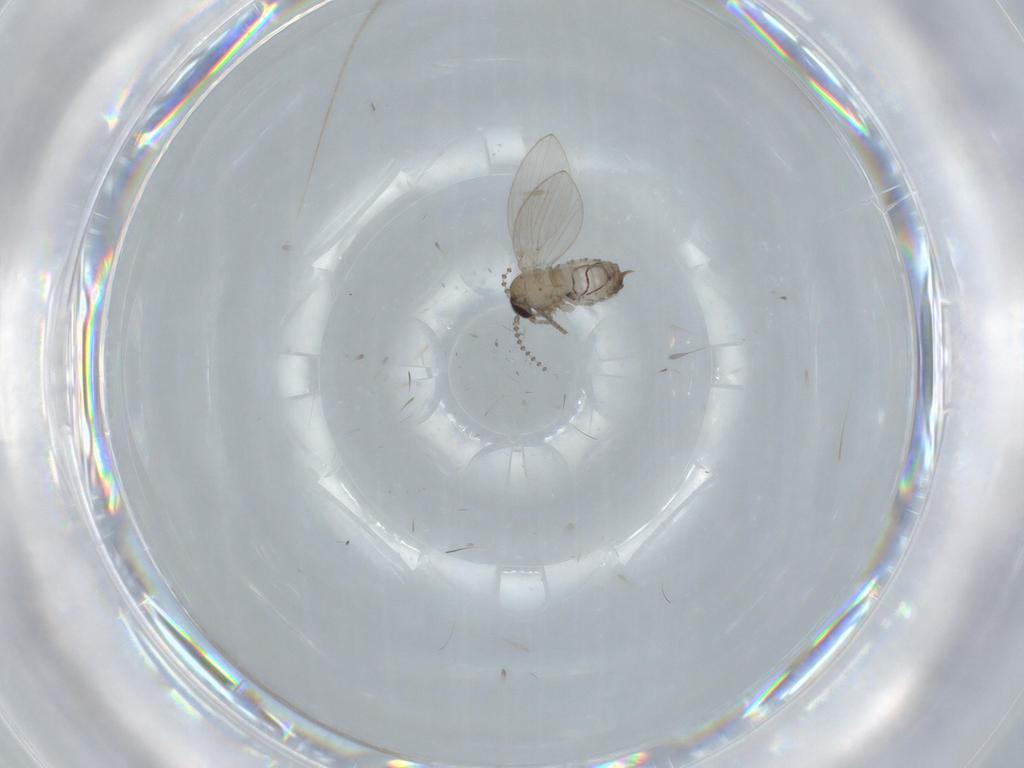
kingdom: Animalia
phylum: Arthropoda
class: Insecta
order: Diptera
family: Psychodidae
